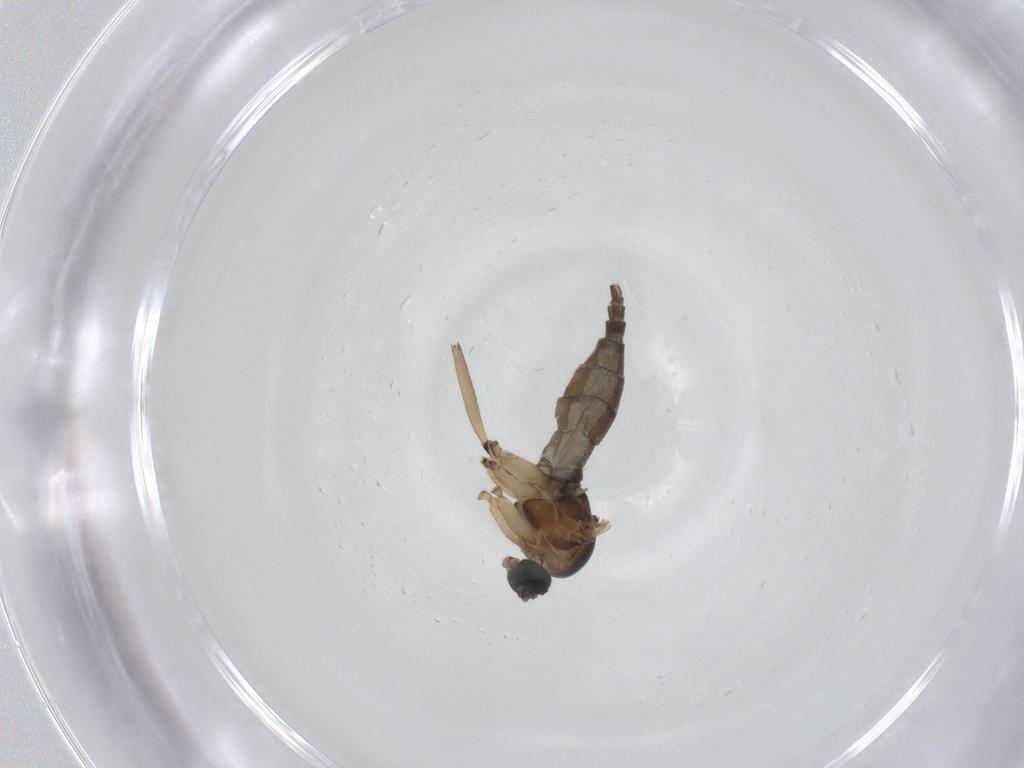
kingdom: Animalia
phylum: Arthropoda
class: Insecta
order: Diptera
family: Sciaridae
